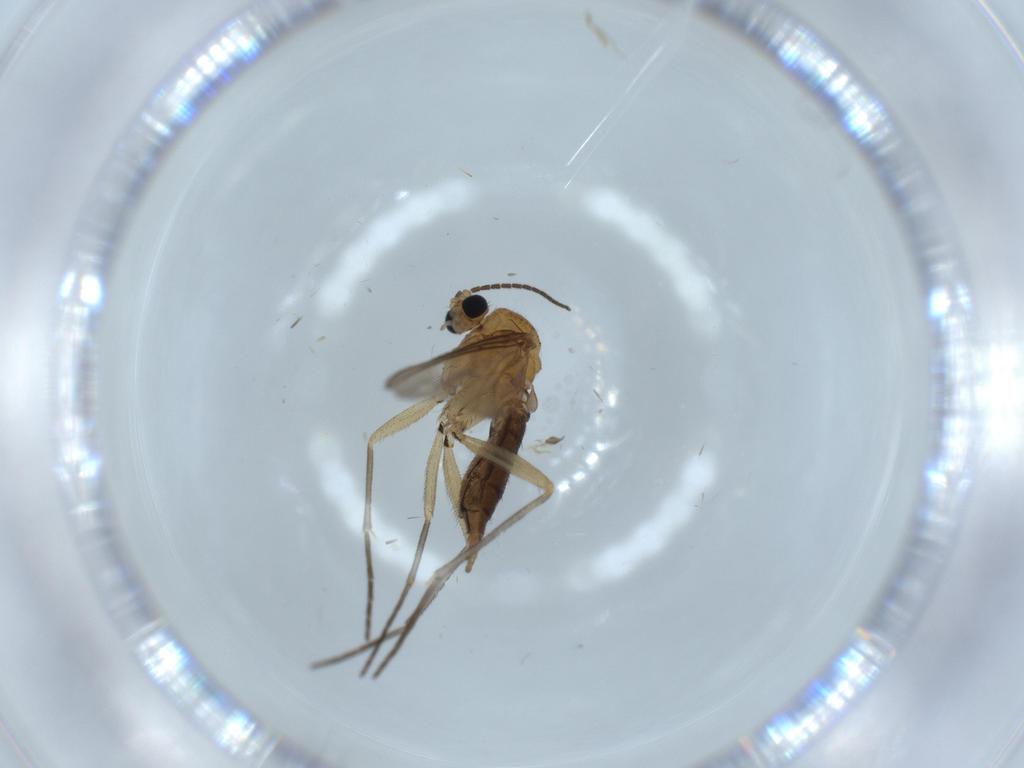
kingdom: Animalia
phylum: Arthropoda
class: Insecta
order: Diptera
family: Sciaridae
